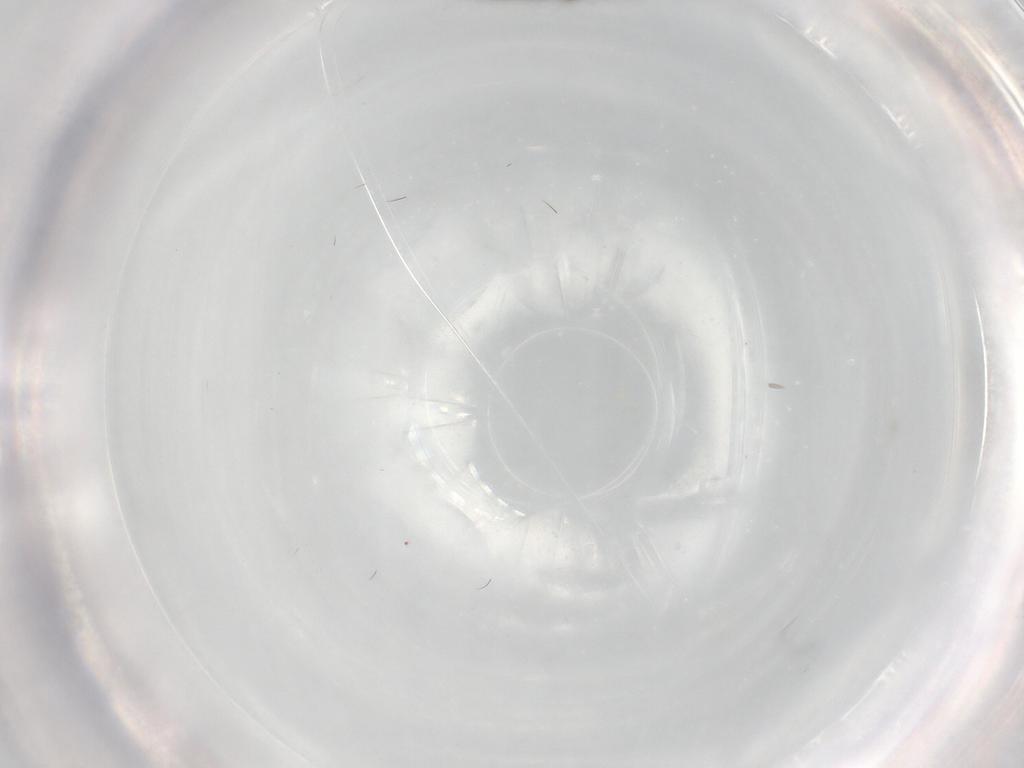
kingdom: Animalia
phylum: Arthropoda
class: Insecta
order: Diptera
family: Cecidomyiidae
